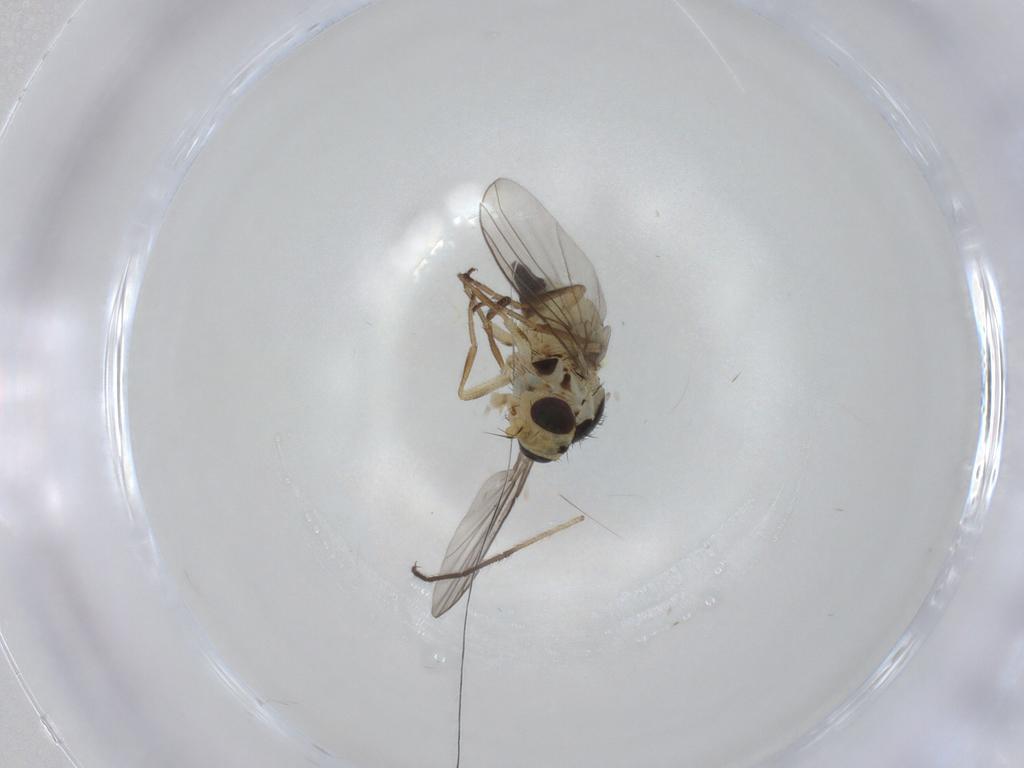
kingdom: Animalia
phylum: Arthropoda
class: Insecta
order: Diptera
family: Agromyzidae
